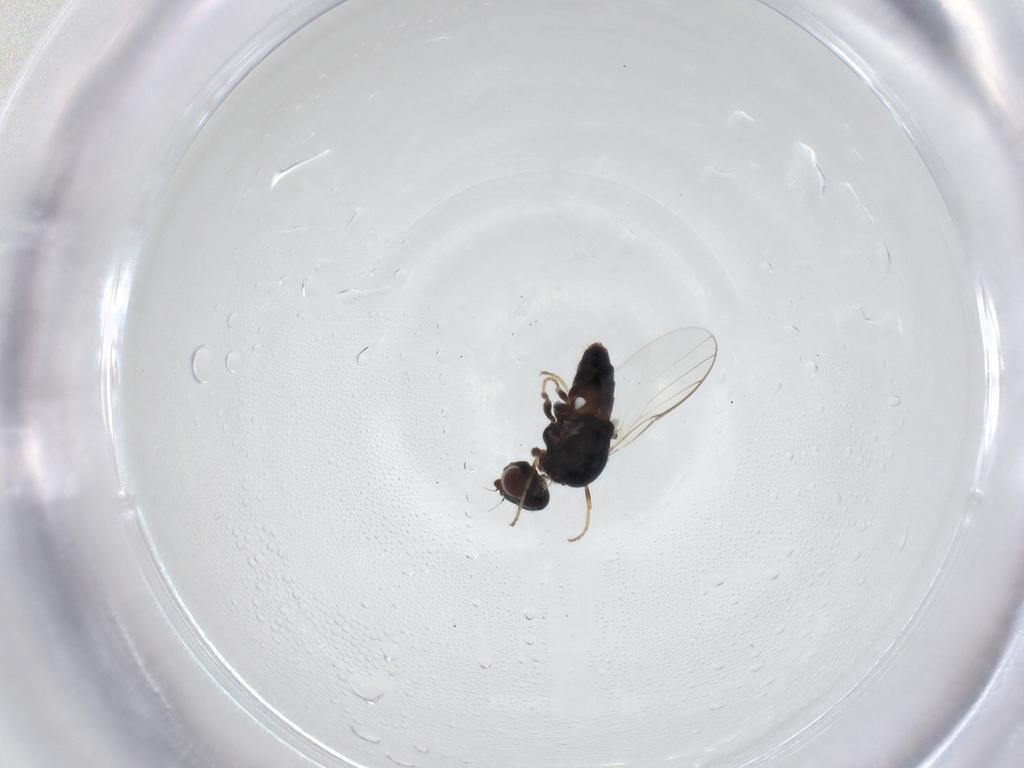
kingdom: Animalia
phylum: Arthropoda
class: Insecta
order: Diptera
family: Chloropidae
